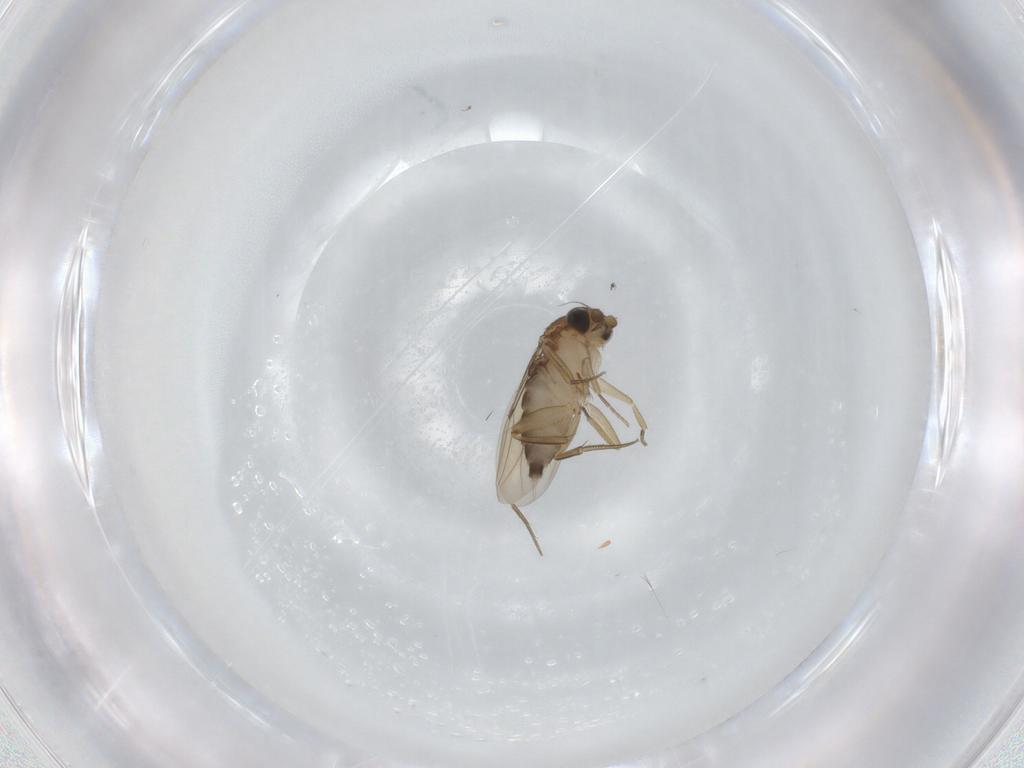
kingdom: Animalia
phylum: Arthropoda
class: Insecta
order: Diptera
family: Phoridae
